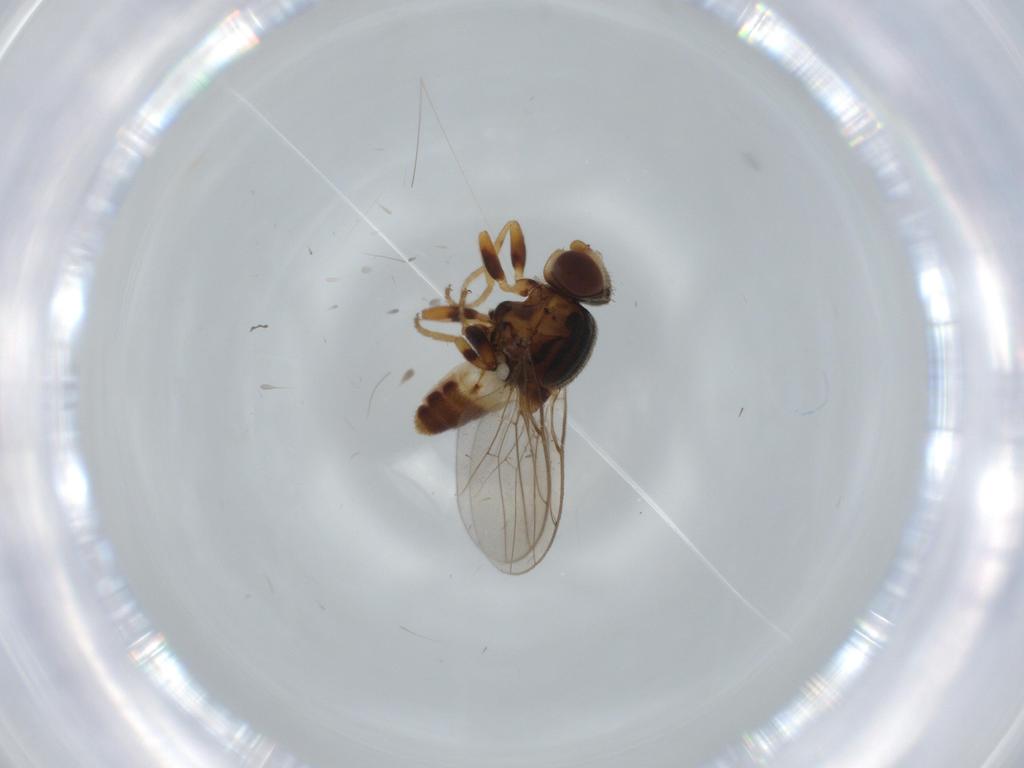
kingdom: Animalia
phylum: Arthropoda
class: Insecta
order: Diptera
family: Chloropidae
